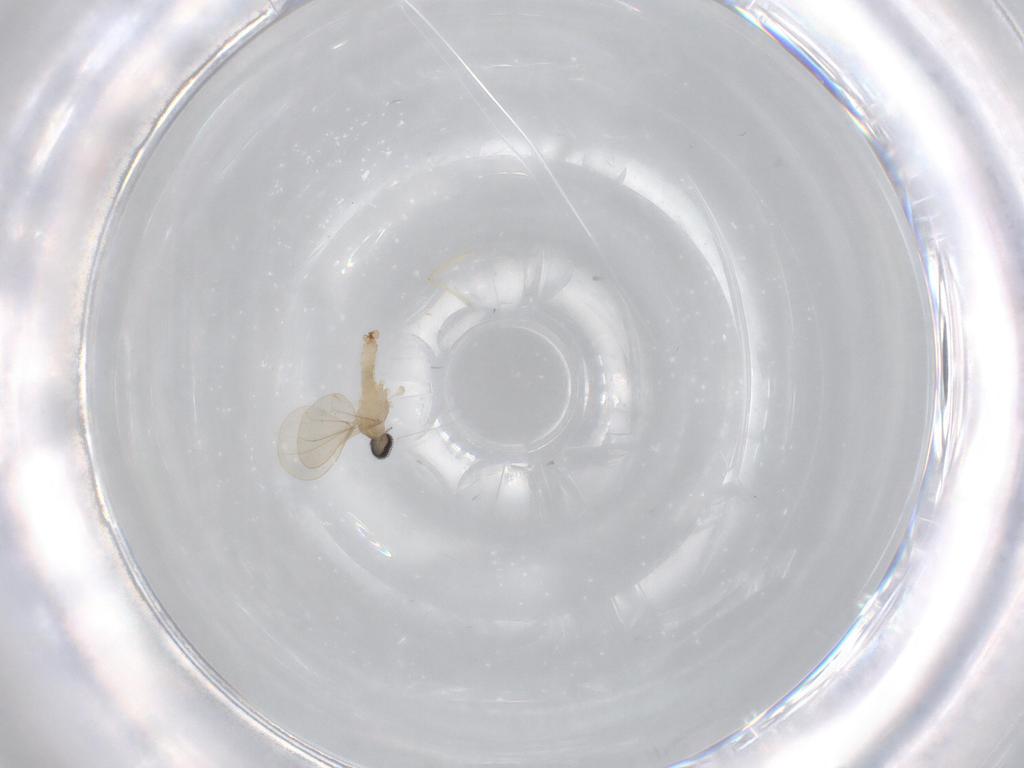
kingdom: Animalia
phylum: Arthropoda
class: Insecta
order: Diptera
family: Cecidomyiidae
